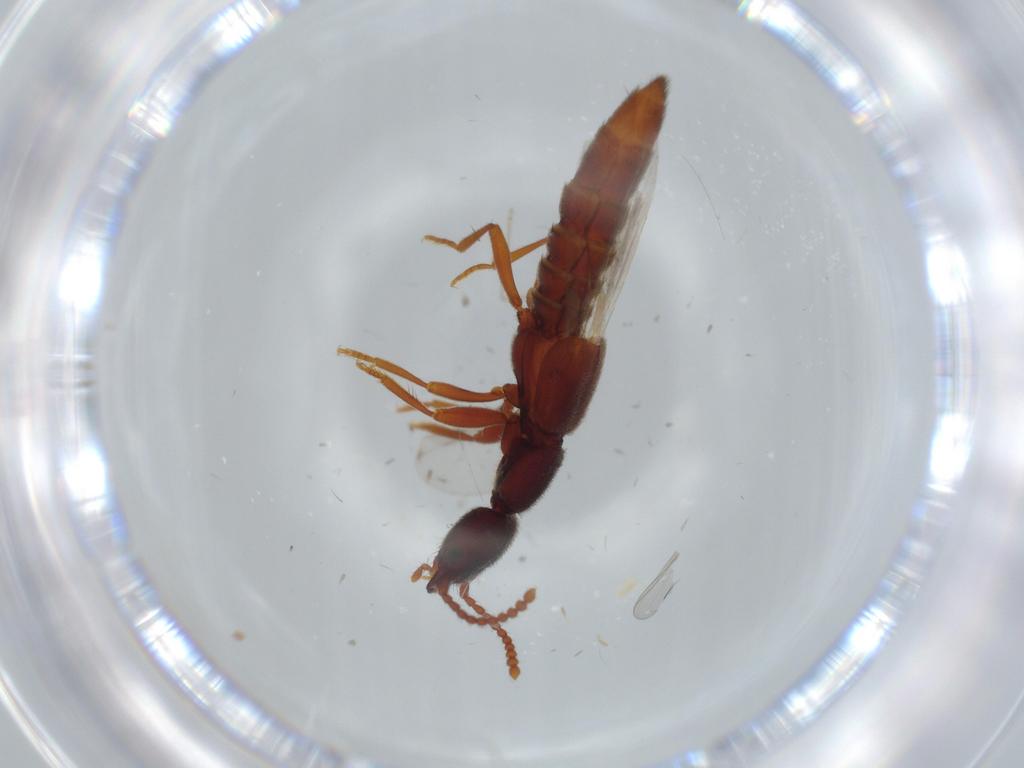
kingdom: Animalia
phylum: Arthropoda
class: Insecta
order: Coleoptera
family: Staphylinidae
